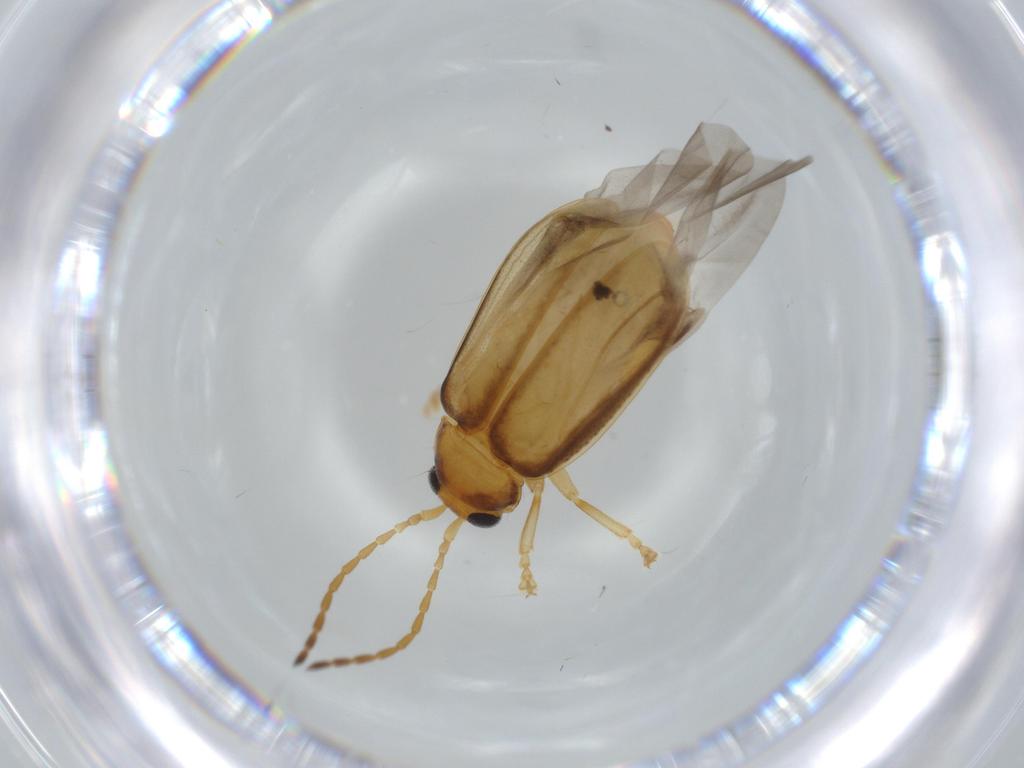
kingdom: Animalia
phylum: Arthropoda
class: Insecta
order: Coleoptera
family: Chrysomelidae
